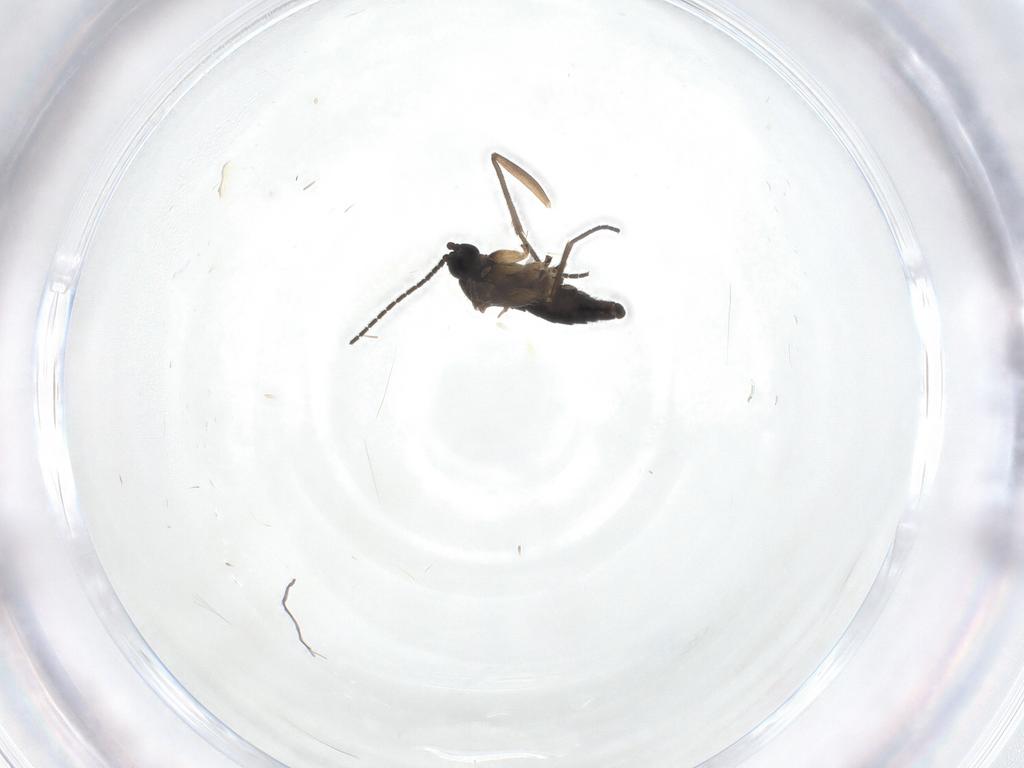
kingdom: Animalia
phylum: Arthropoda
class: Insecta
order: Diptera
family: Sciaridae
